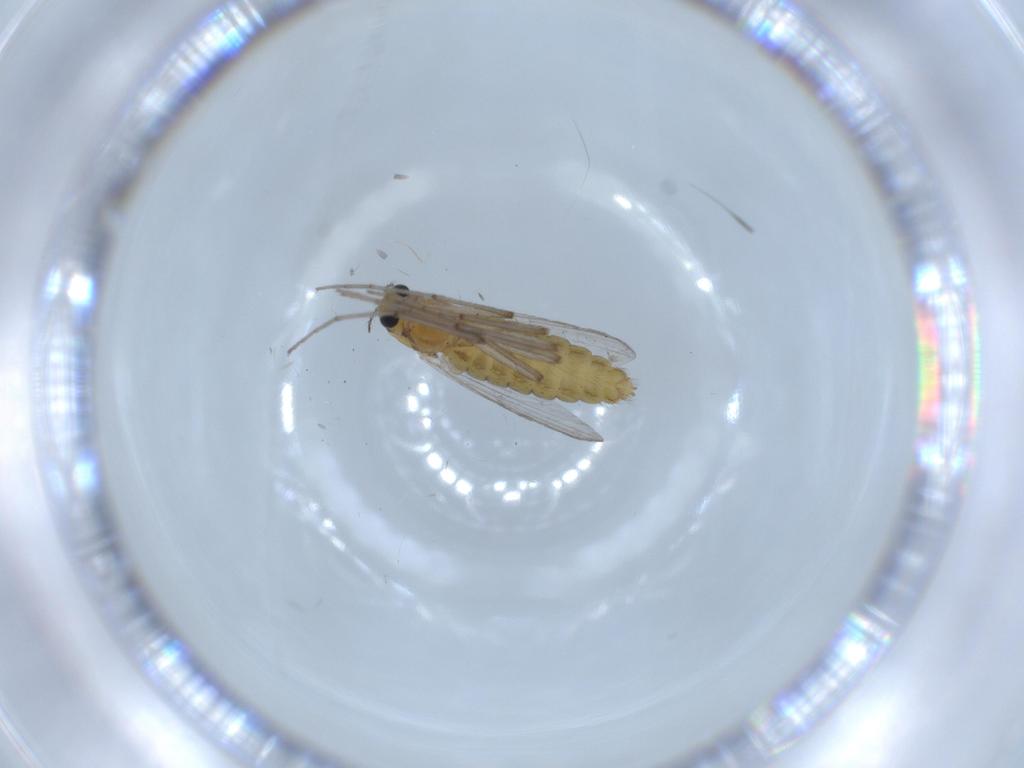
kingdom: Animalia
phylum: Arthropoda
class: Insecta
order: Diptera
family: Chironomidae
